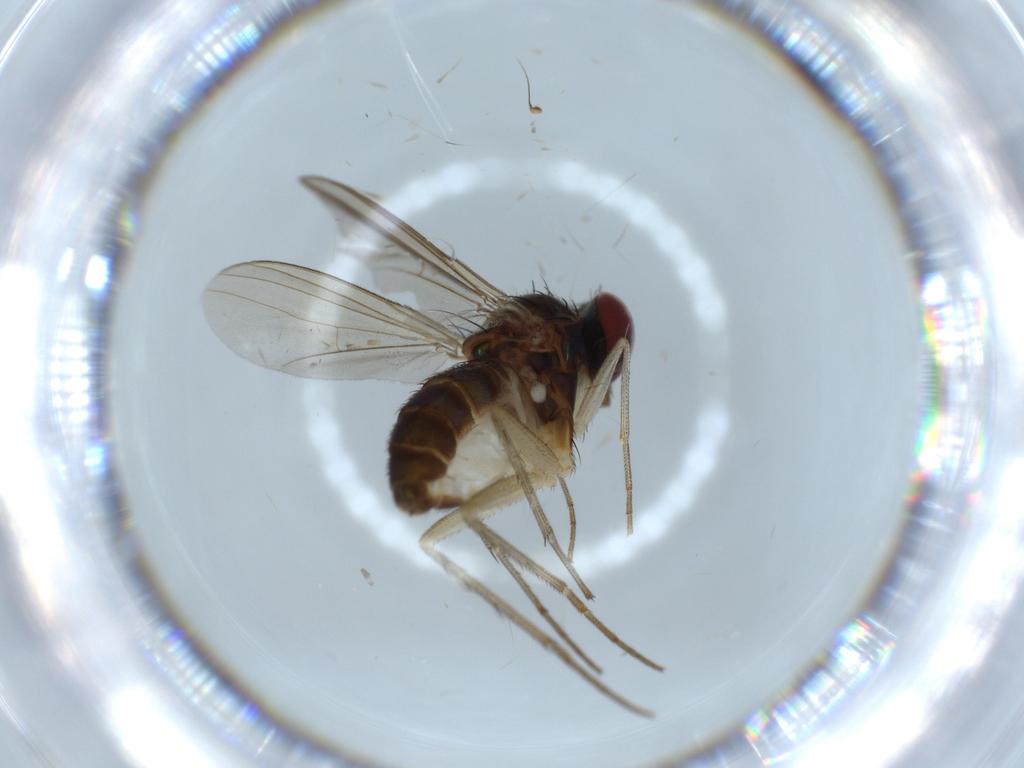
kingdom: Animalia
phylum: Arthropoda
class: Insecta
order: Diptera
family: Dolichopodidae
